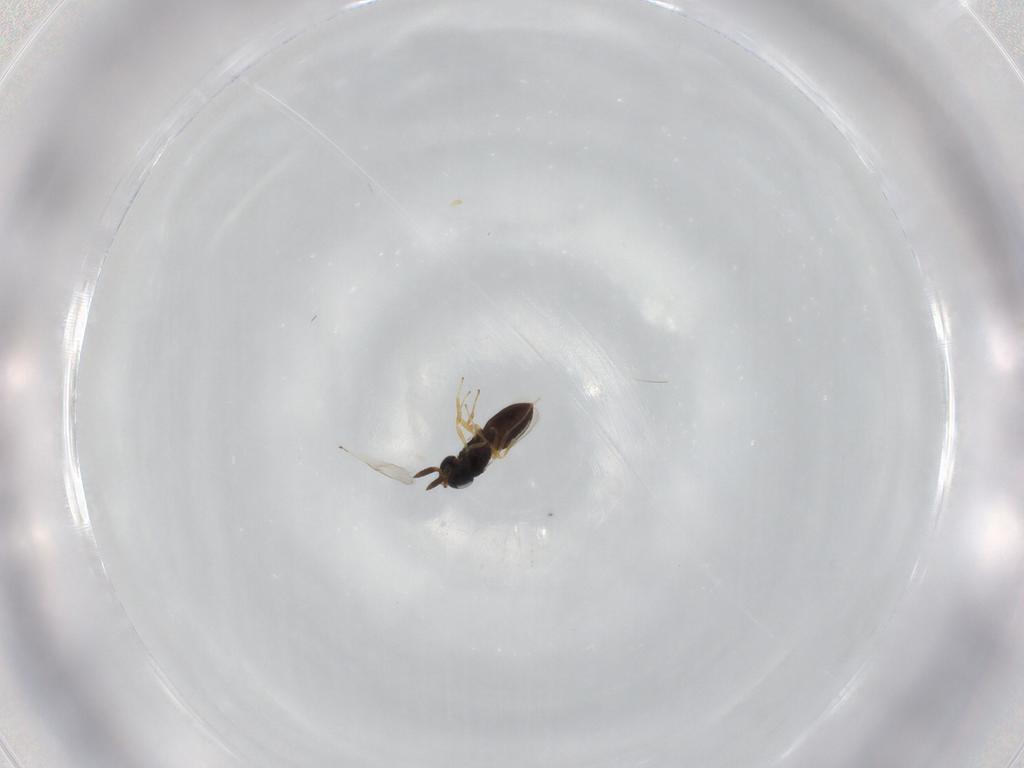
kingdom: Animalia
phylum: Arthropoda
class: Insecta
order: Hymenoptera
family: Scelionidae
